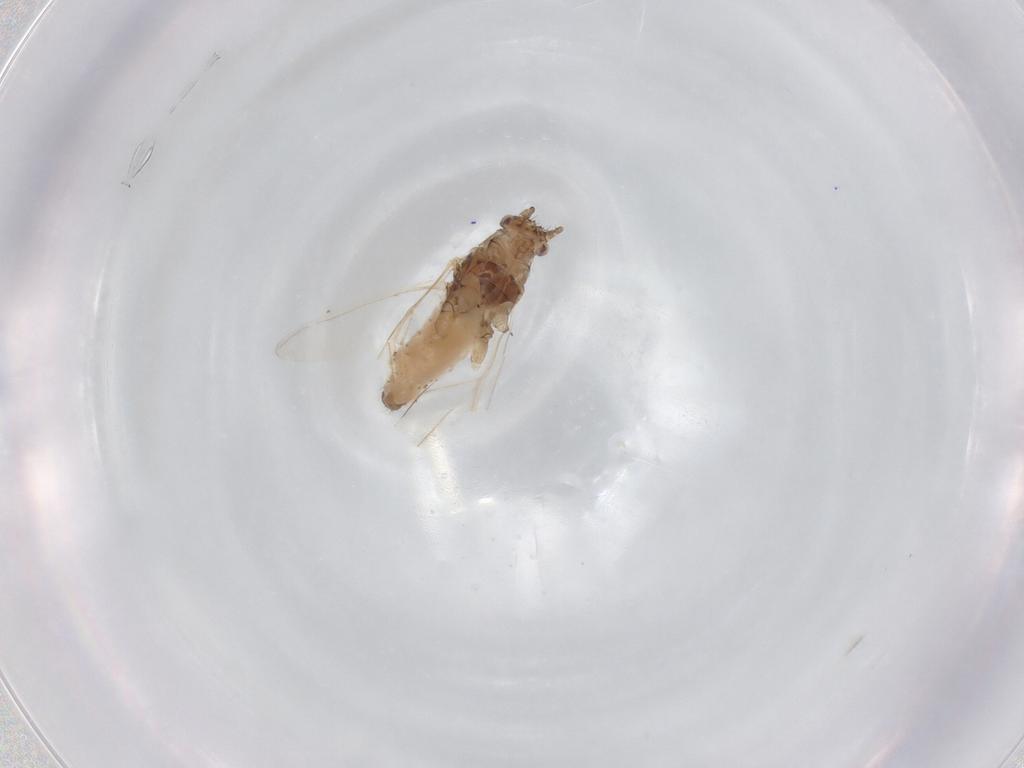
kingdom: Animalia
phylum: Arthropoda
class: Insecta
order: Hemiptera
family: Aphididae
